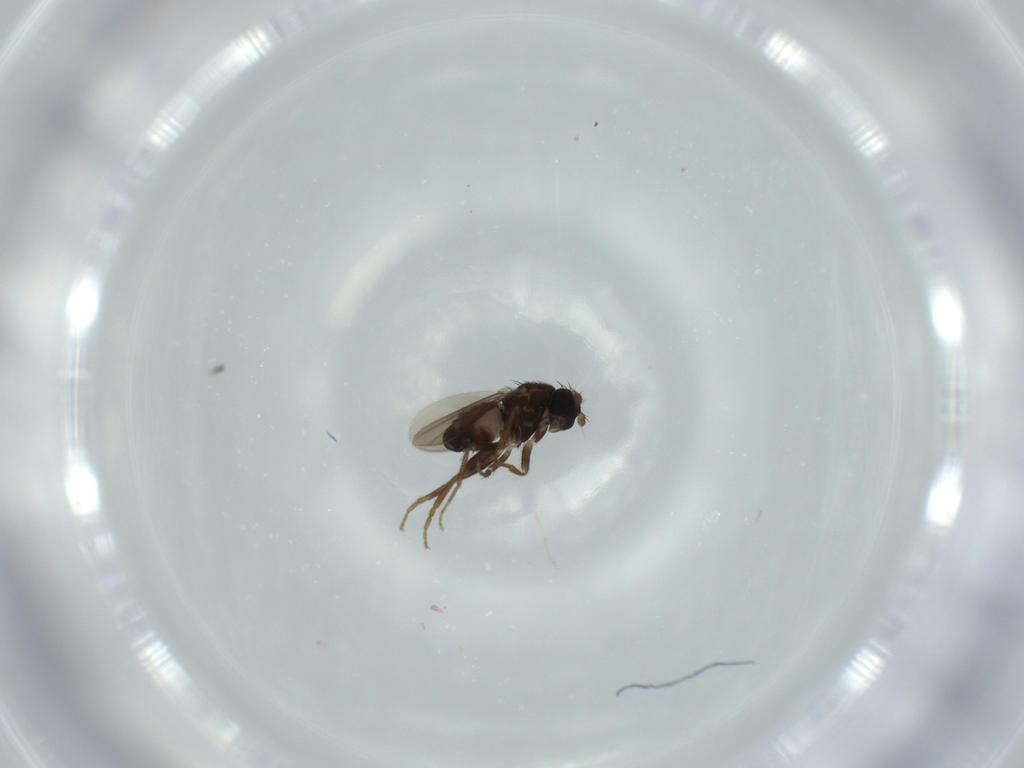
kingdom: Animalia
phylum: Arthropoda
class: Insecta
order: Diptera
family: Sphaeroceridae
